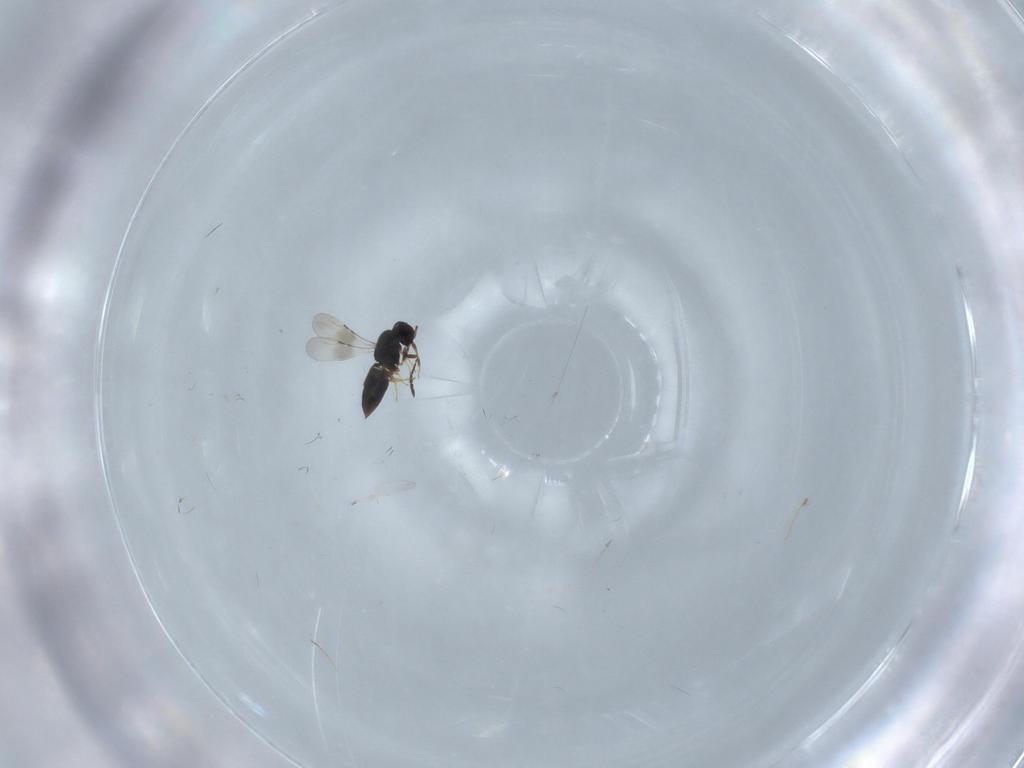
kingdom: Animalia
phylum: Arthropoda
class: Insecta
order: Hymenoptera
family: Ceraphronidae
